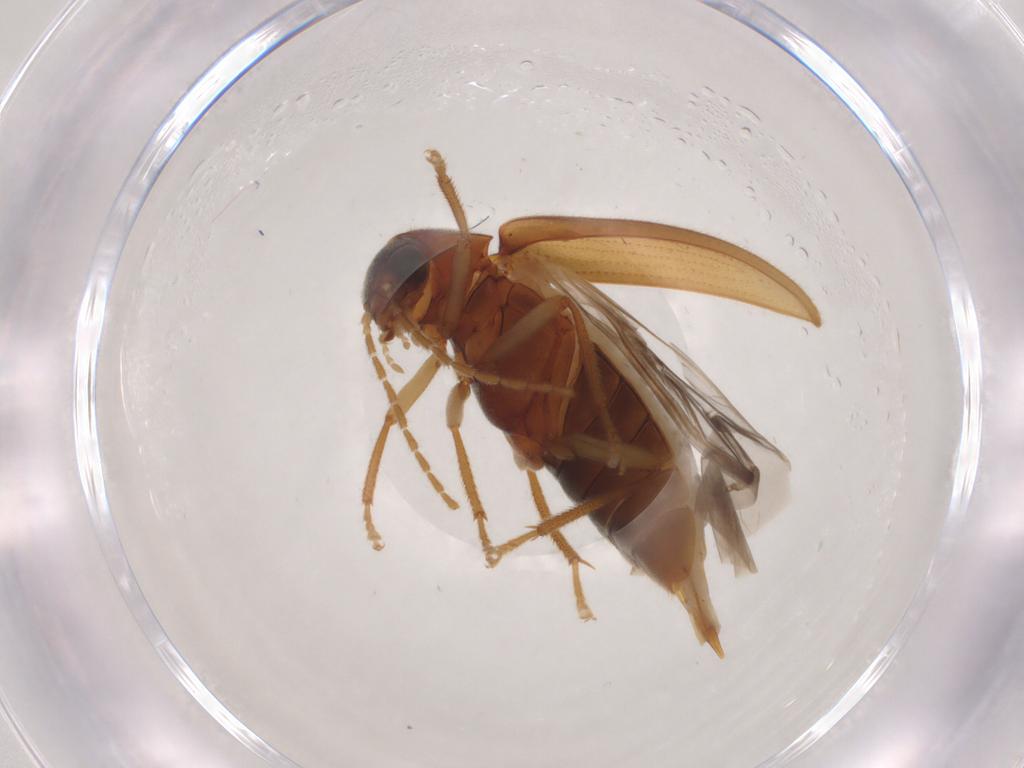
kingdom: Animalia
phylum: Arthropoda
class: Insecta
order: Coleoptera
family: Ptilodactylidae
